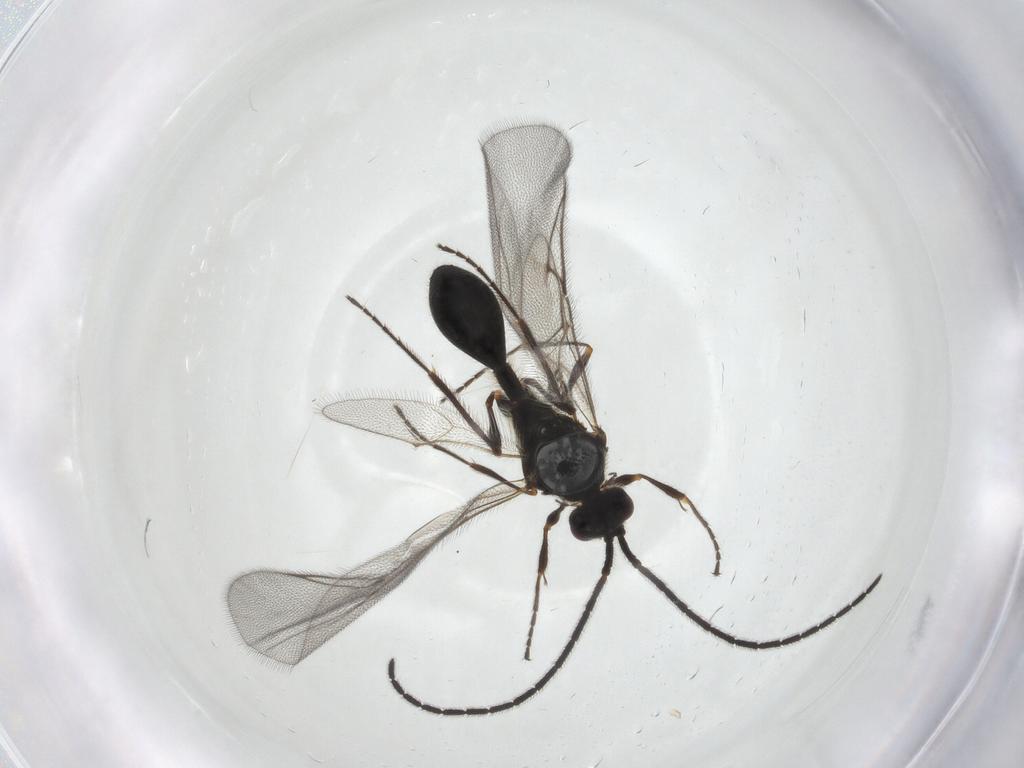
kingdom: Animalia
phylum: Arthropoda
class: Insecta
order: Hymenoptera
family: Diapriidae
